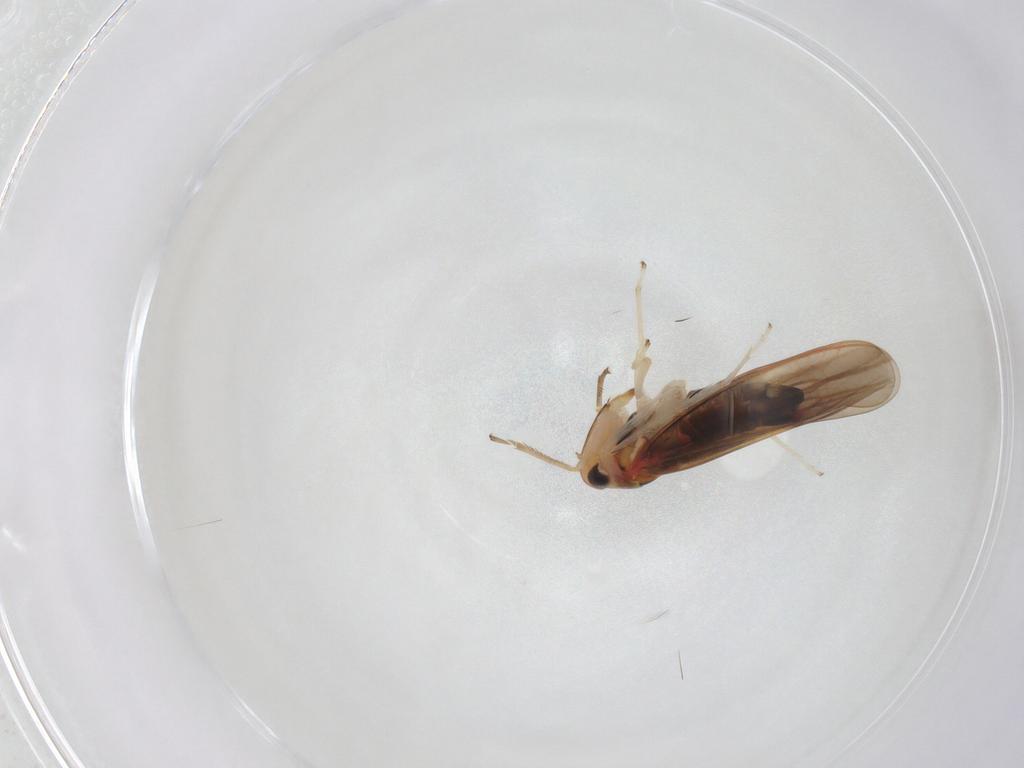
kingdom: Animalia
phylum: Arthropoda
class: Insecta
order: Hemiptera
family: Cicadellidae
